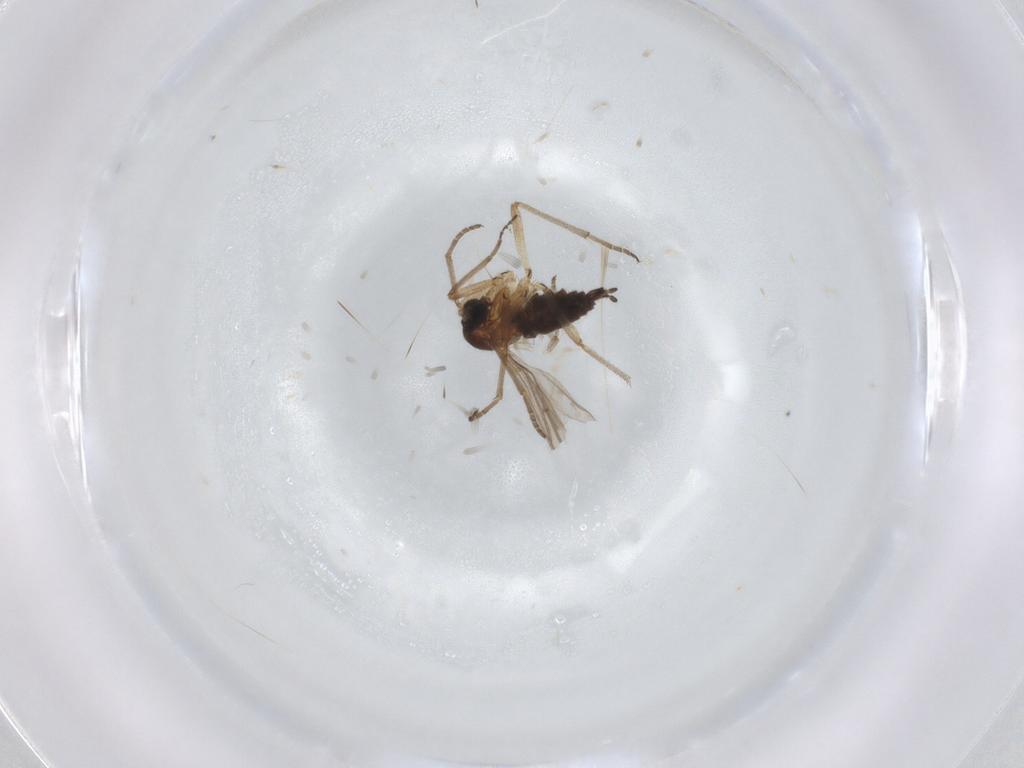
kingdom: Animalia
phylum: Arthropoda
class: Insecta
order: Diptera
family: Sciaridae
